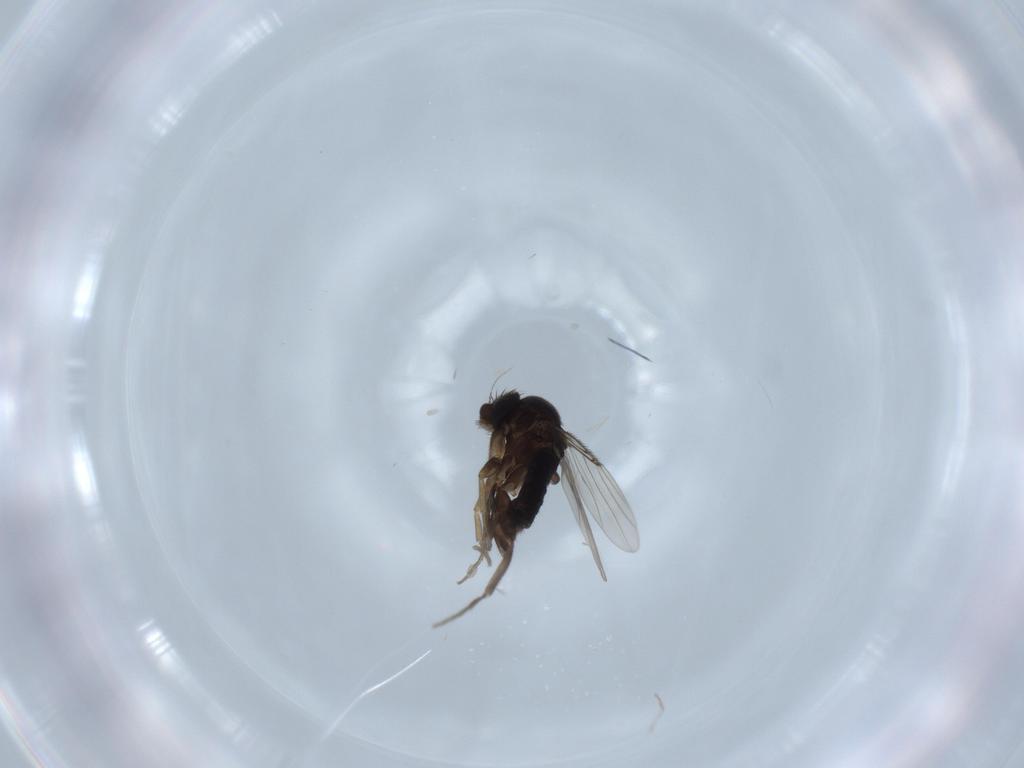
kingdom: Animalia
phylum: Arthropoda
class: Insecta
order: Diptera
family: Phoridae
